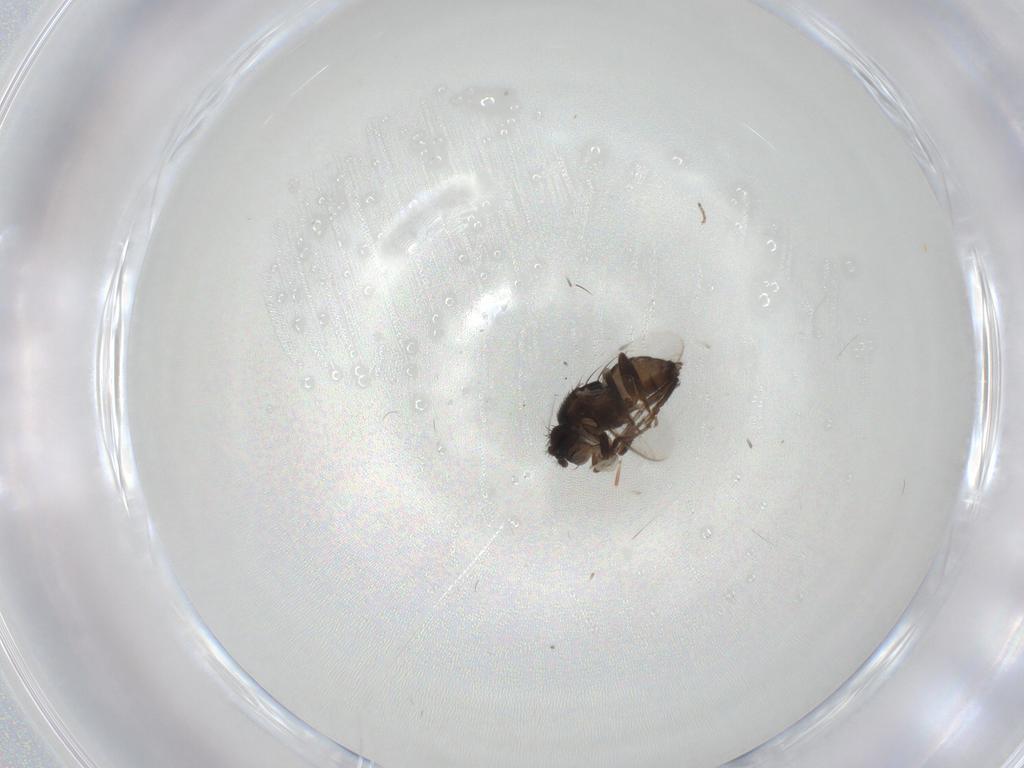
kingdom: Animalia
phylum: Arthropoda
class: Insecta
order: Diptera
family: Sphaeroceridae
